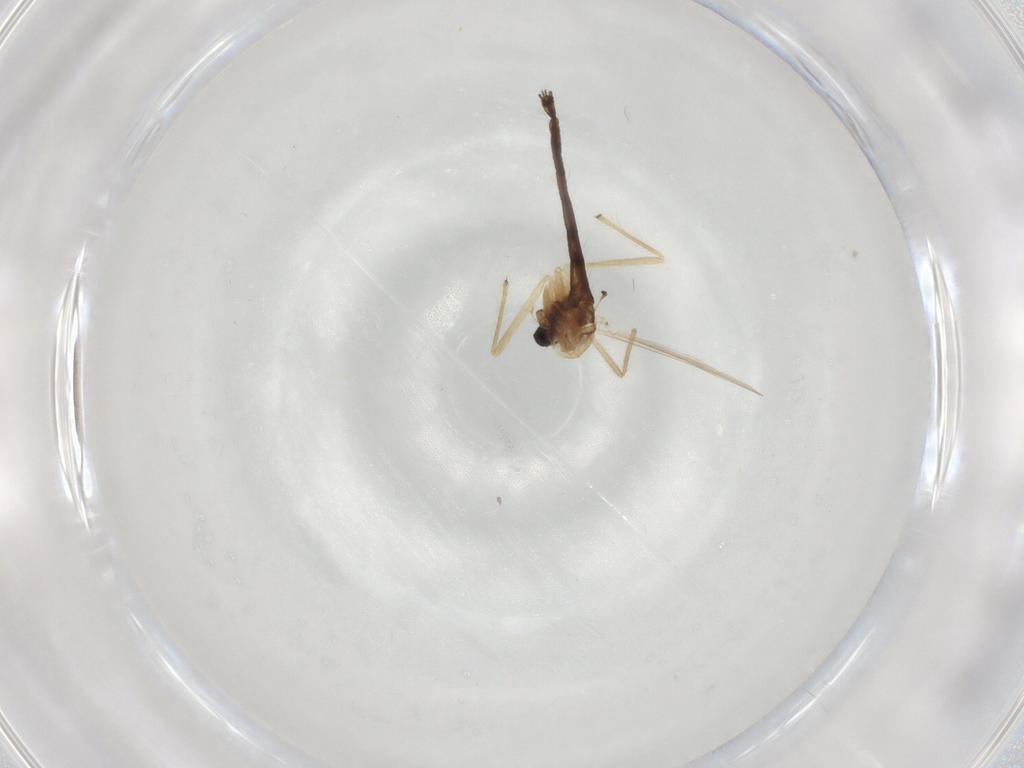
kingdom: Animalia
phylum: Arthropoda
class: Insecta
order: Diptera
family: Chironomidae
